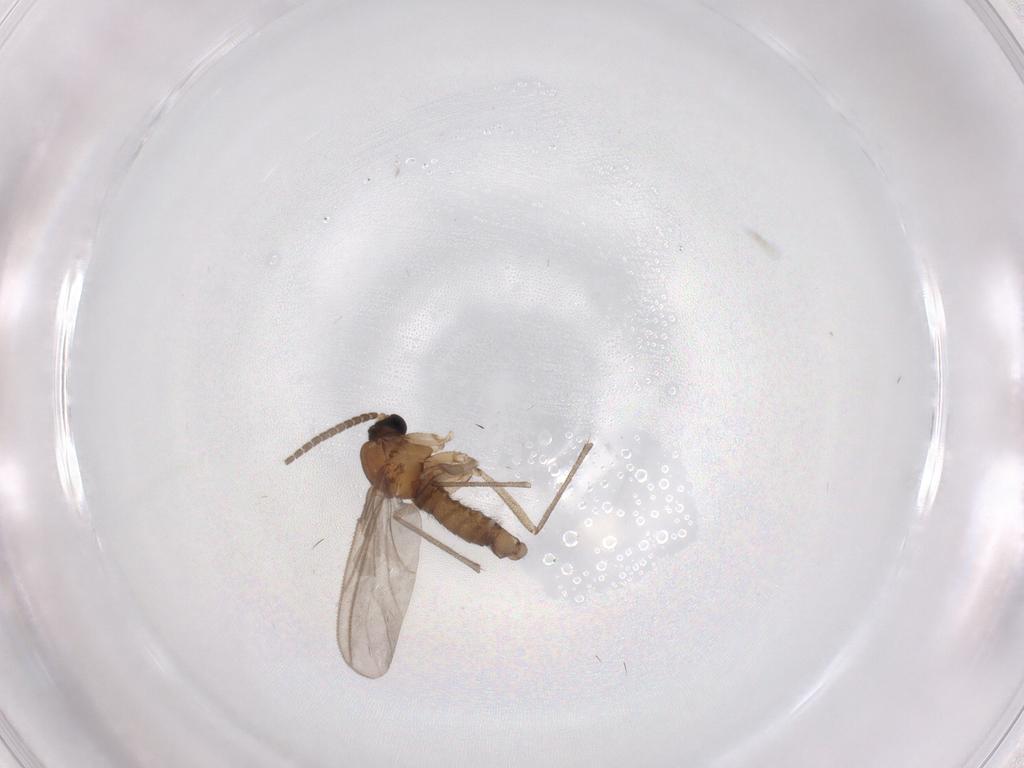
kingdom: Animalia
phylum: Arthropoda
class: Insecta
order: Diptera
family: Sciaridae
